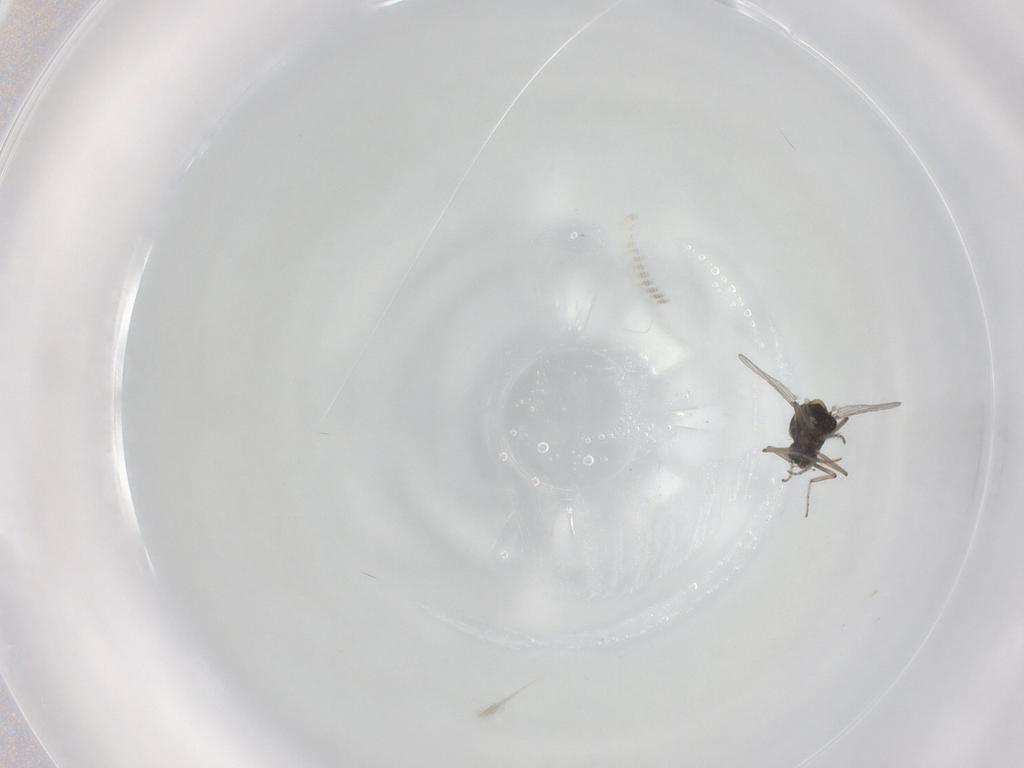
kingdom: Animalia
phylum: Arthropoda
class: Insecta
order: Diptera
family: Ceratopogonidae
